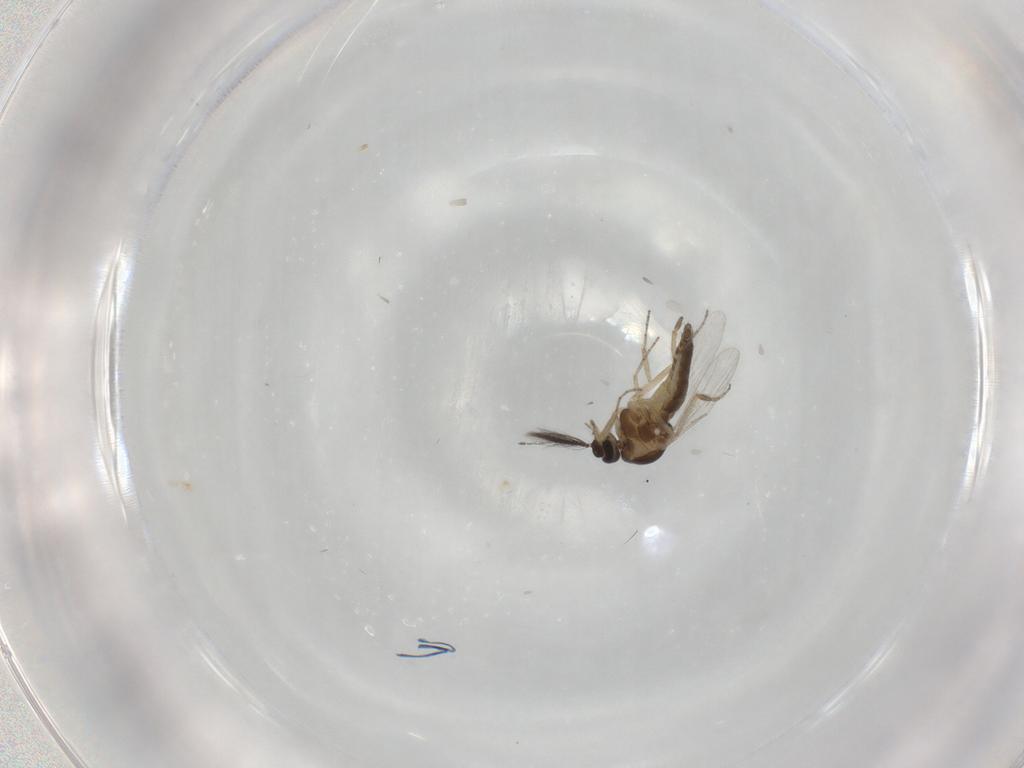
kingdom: Animalia
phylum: Arthropoda
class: Insecta
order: Diptera
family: Ceratopogonidae
